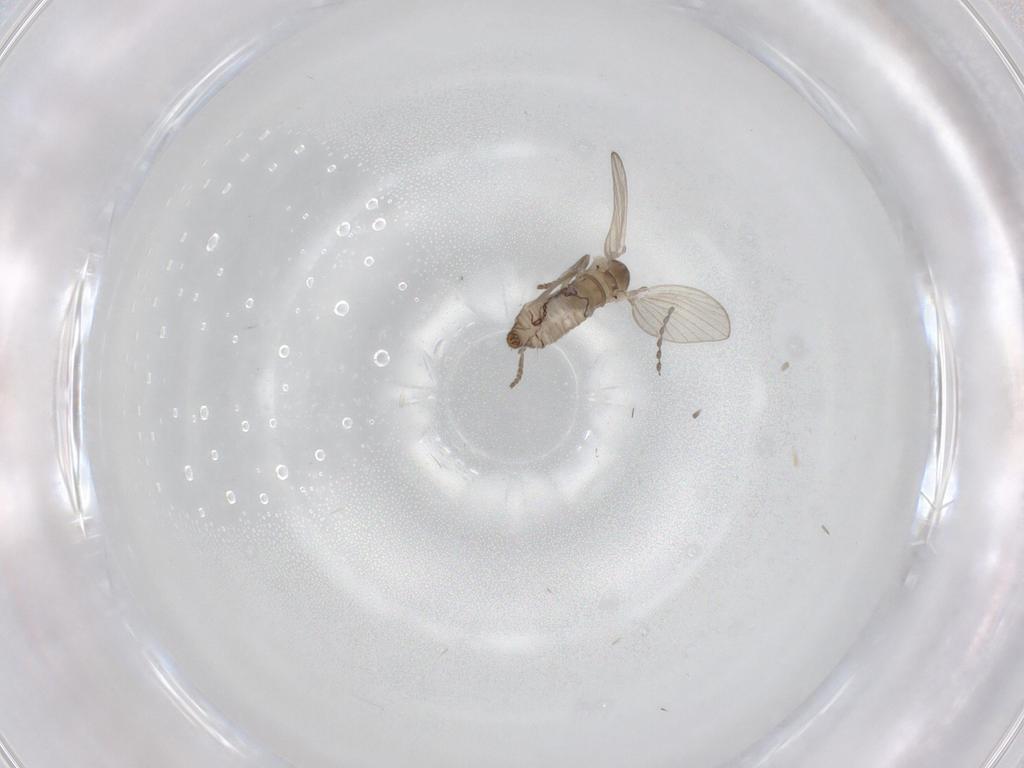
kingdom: Animalia
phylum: Arthropoda
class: Insecta
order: Diptera
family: Psychodidae
